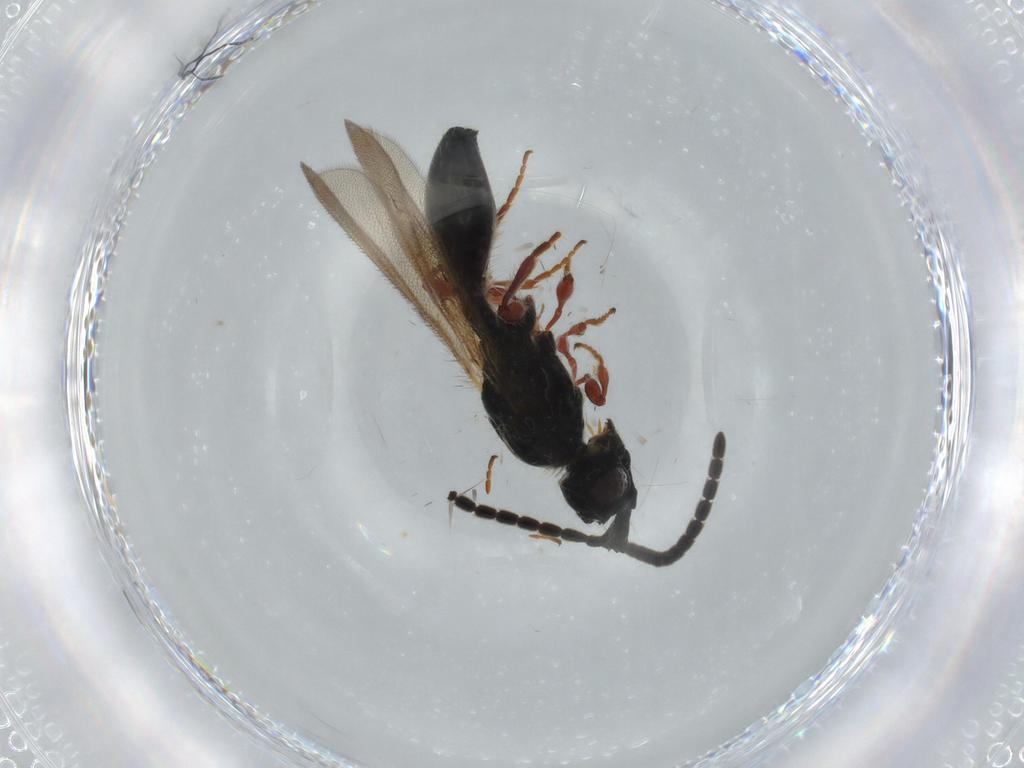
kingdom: Animalia
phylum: Arthropoda
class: Insecta
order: Hymenoptera
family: Diapriidae
